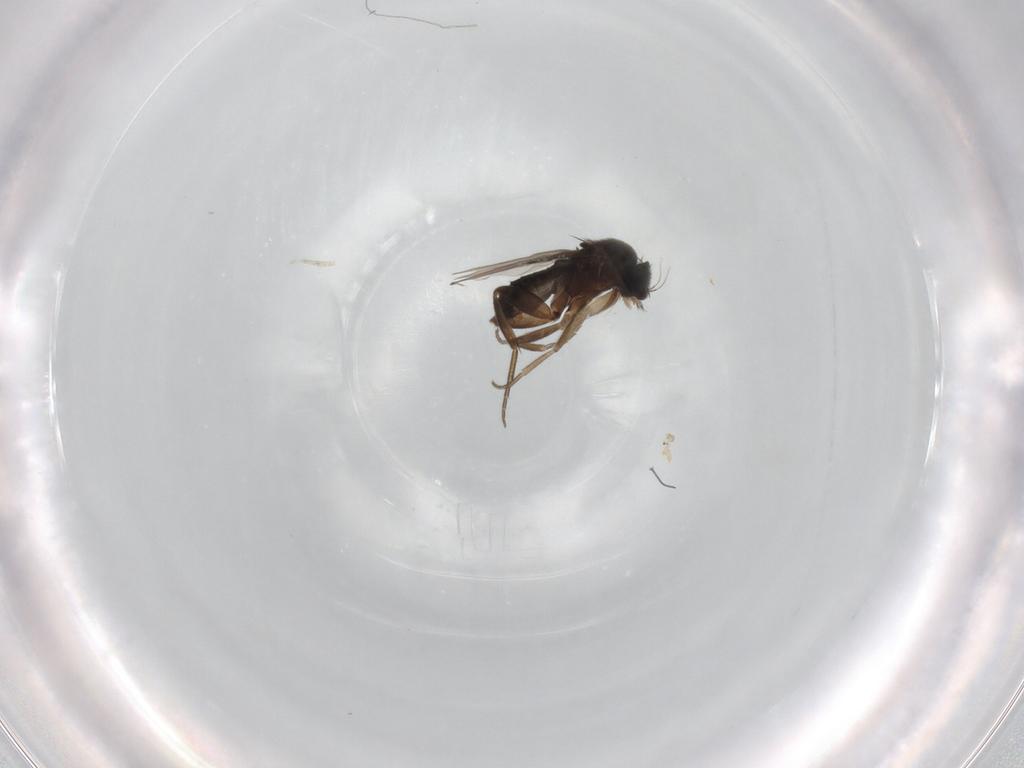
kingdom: Animalia
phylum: Arthropoda
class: Insecta
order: Diptera
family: Phoridae
